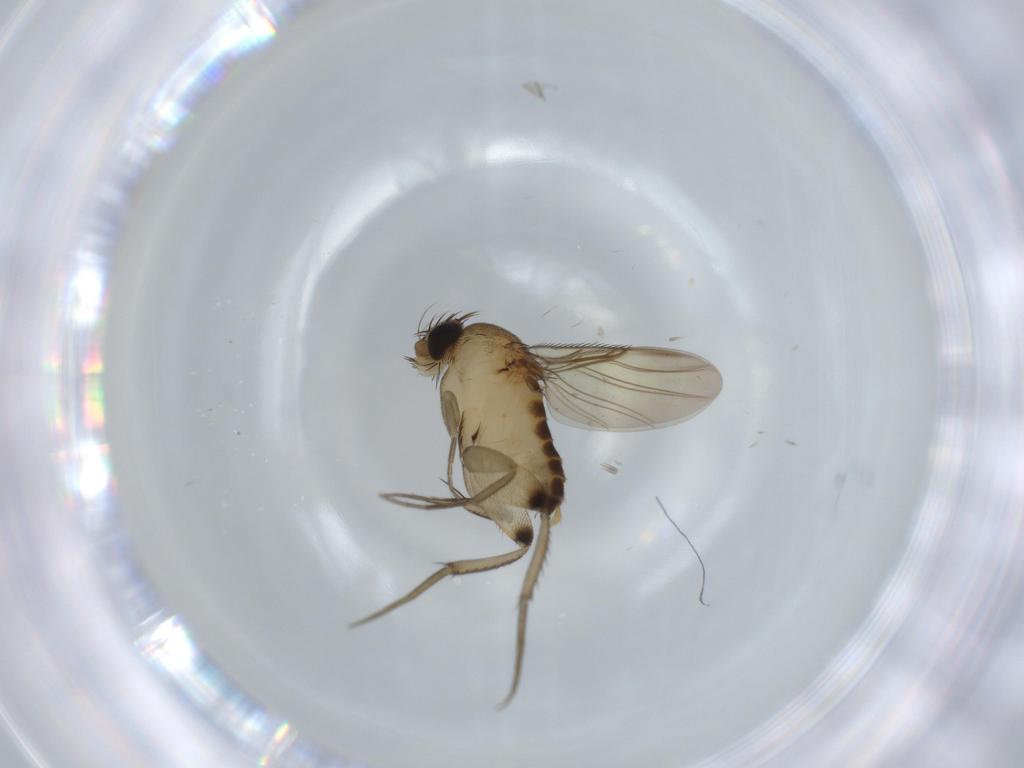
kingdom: Animalia
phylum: Arthropoda
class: Insecta
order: Diptera
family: Phoridae
